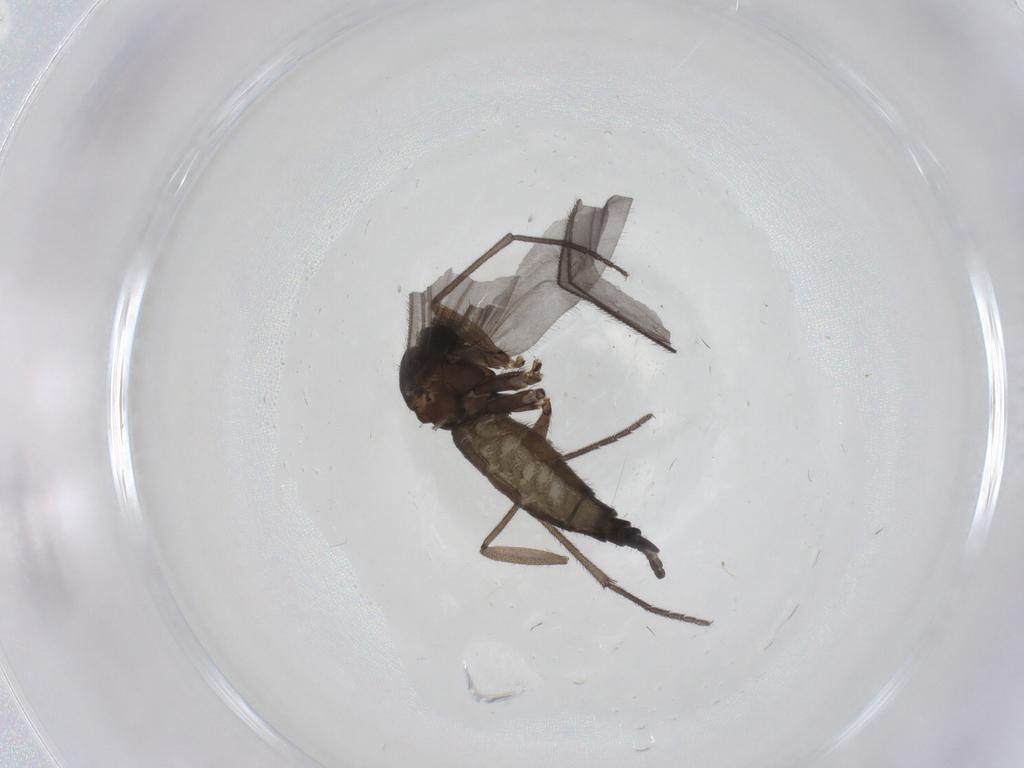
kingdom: Animalia
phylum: Arthropoda
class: Insecta
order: Diptera
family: Sciaridae
